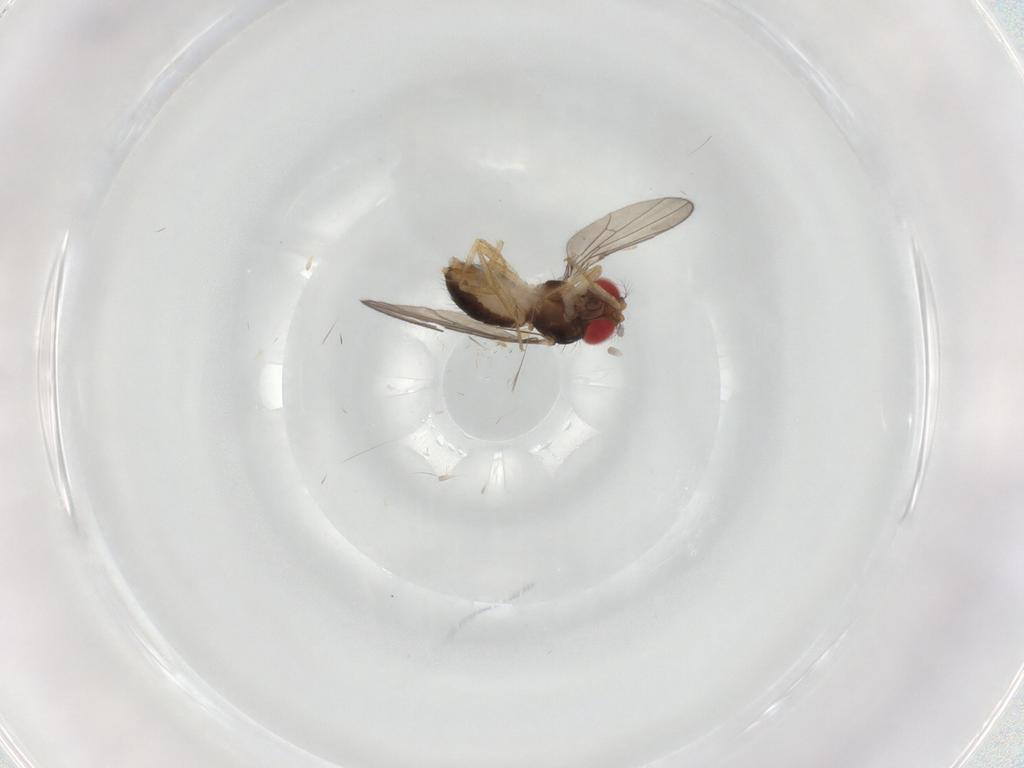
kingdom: Animalia
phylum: Arthropoda
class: Insecta
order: Diptera
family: Drosophilidae
